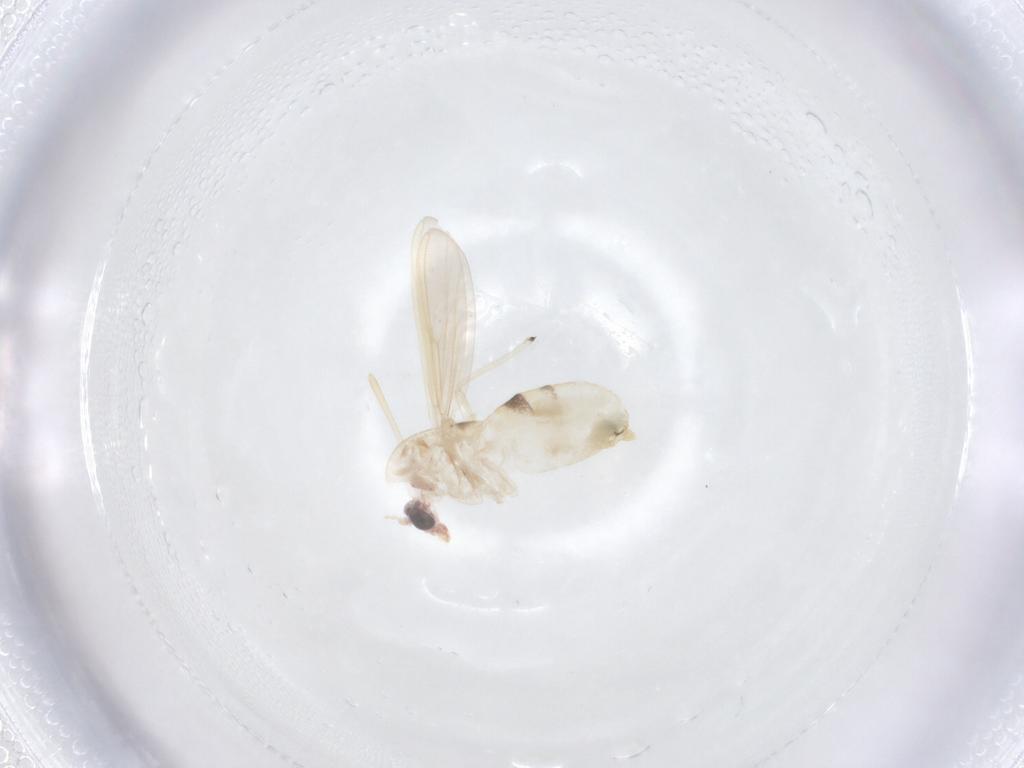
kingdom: Animalia
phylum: Arthropoda
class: Insecta
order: Diptera
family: Chironomidae
